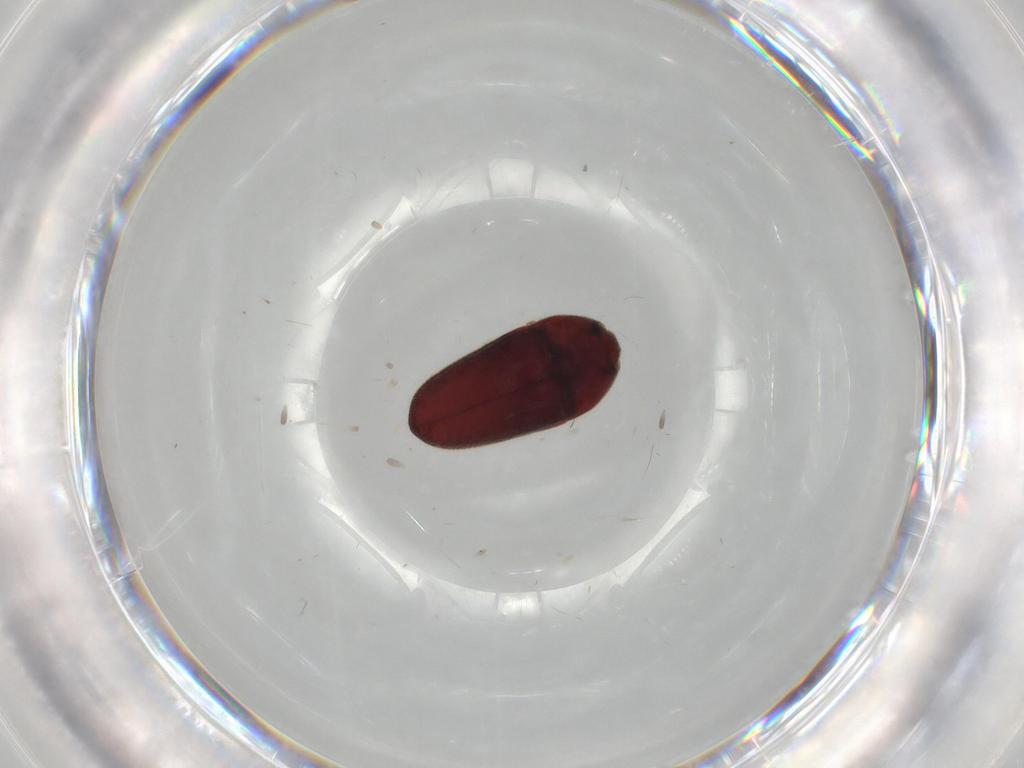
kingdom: Animalia
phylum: Arthropoda
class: Insecta
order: Coleoptera
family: Throscidae
